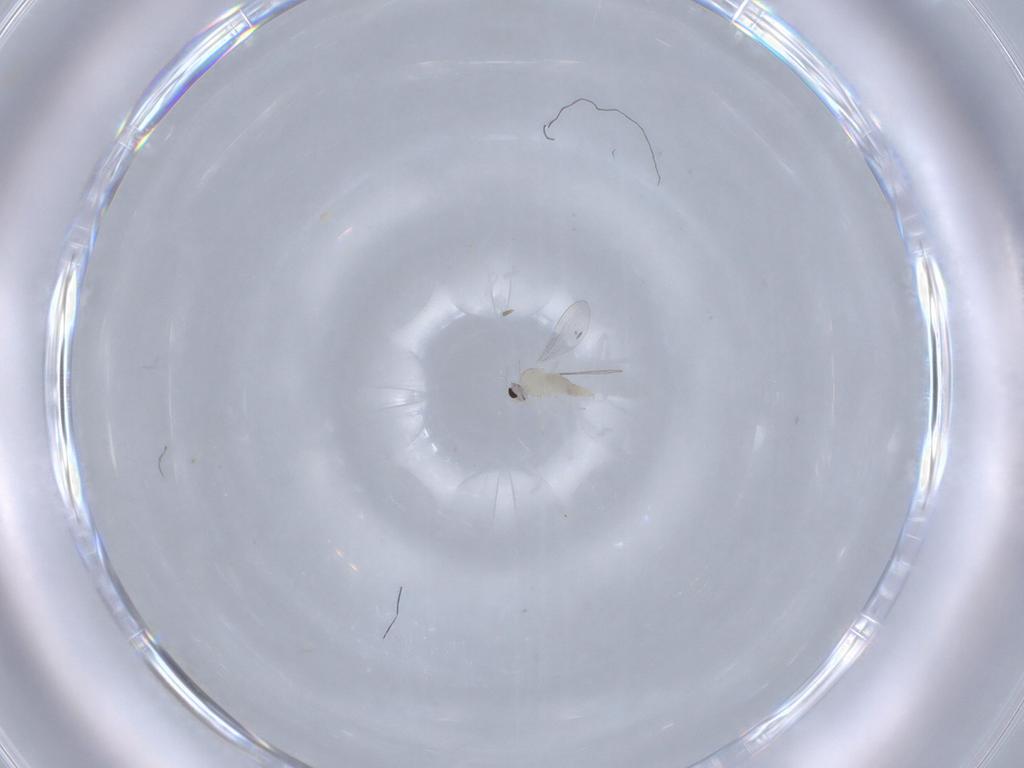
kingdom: Animalia
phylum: Arthropoda
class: Insecta
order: Diptera
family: Cecidomyiidae
